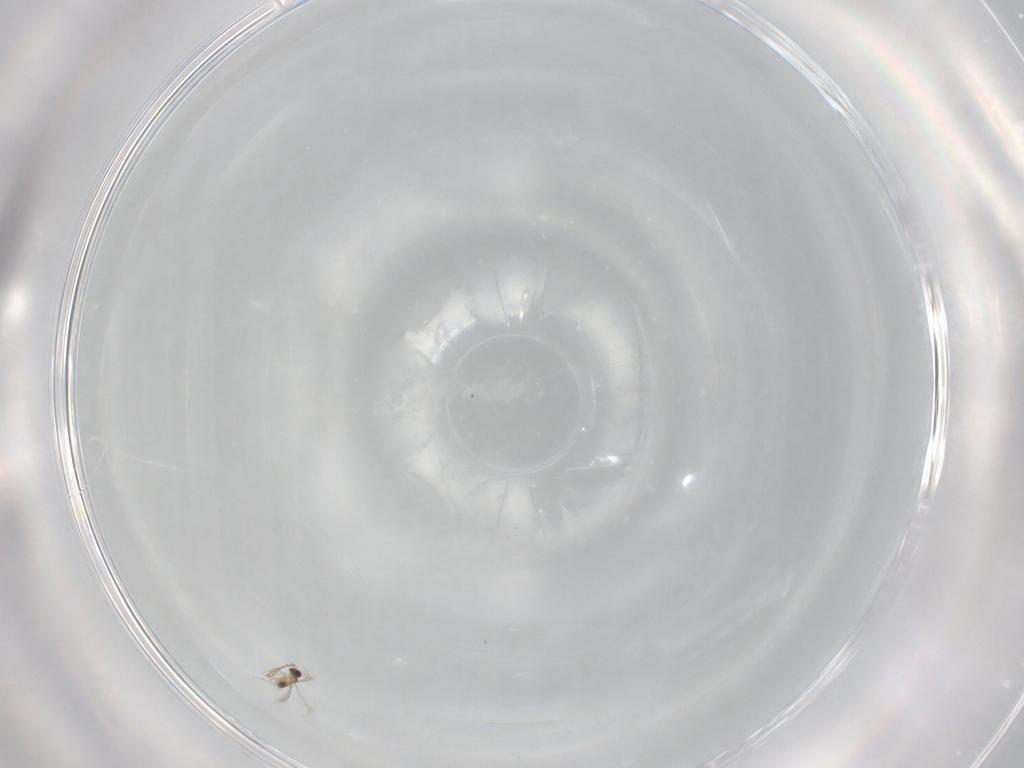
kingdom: Animalia
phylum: Arthropoda
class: Insecta
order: Hymenoptera
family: Mymaridae
